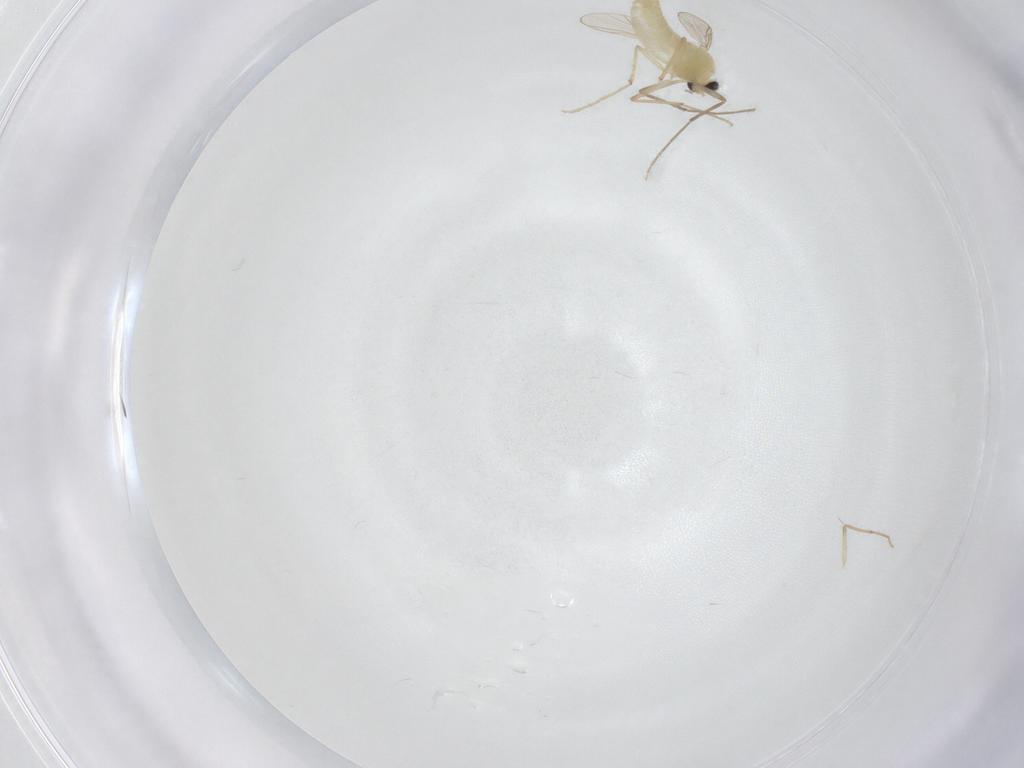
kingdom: Animalia
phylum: Arthropoda
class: Insecta
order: Diptera
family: Chironomidae
